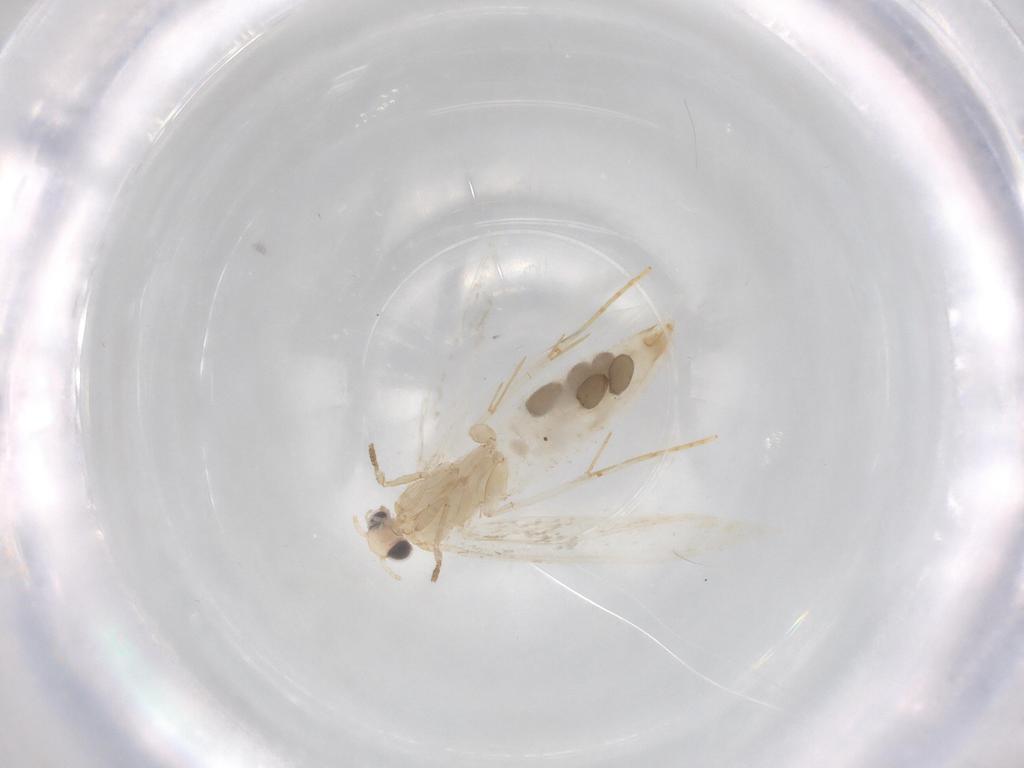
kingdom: Animalia
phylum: Arthropoda
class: Insecta
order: Lepidoptera
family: Tineidae
